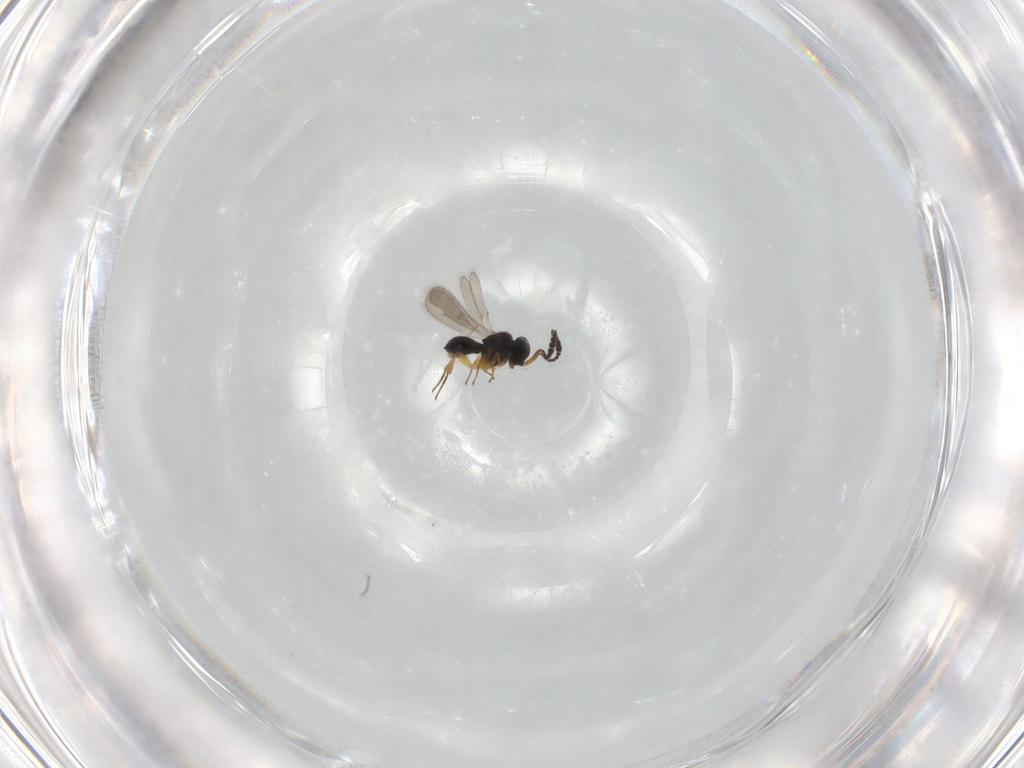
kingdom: Animalia
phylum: Arthropoda
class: Insecta
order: Hymenoptera
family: Scelionidae
